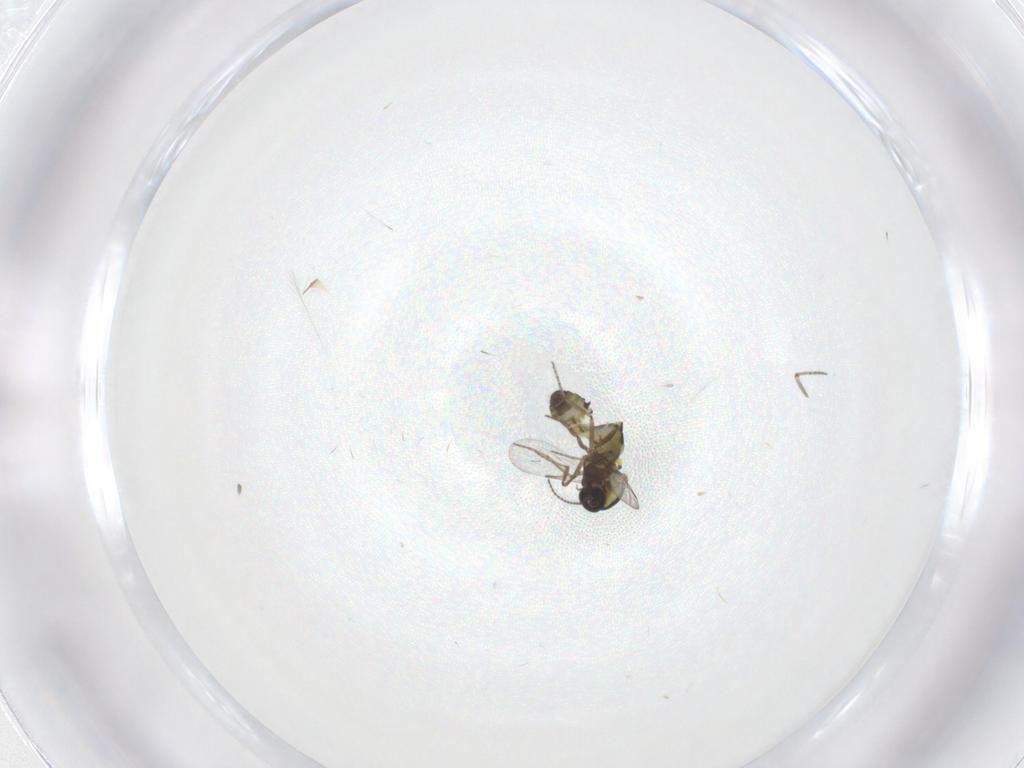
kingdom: Animalia
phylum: Arthropoda
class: Insecta
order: Diptera
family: Ceratopogonidae
